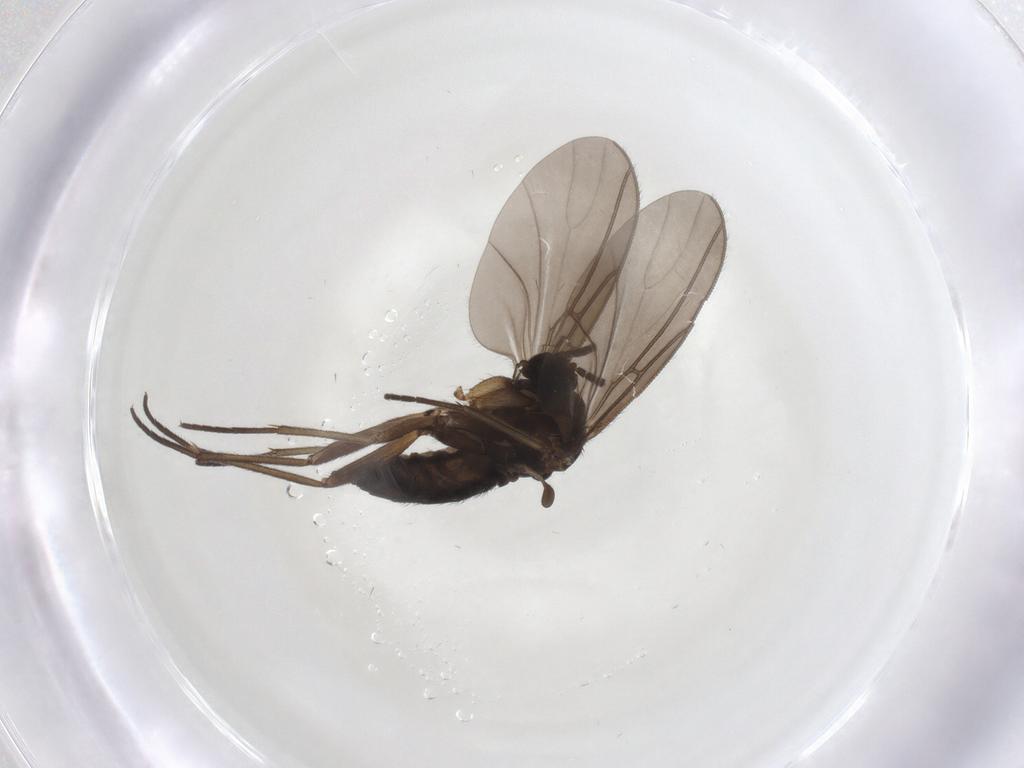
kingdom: Animalia
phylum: Arthropoda
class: Insecta
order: Diptera
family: Sciaridae
